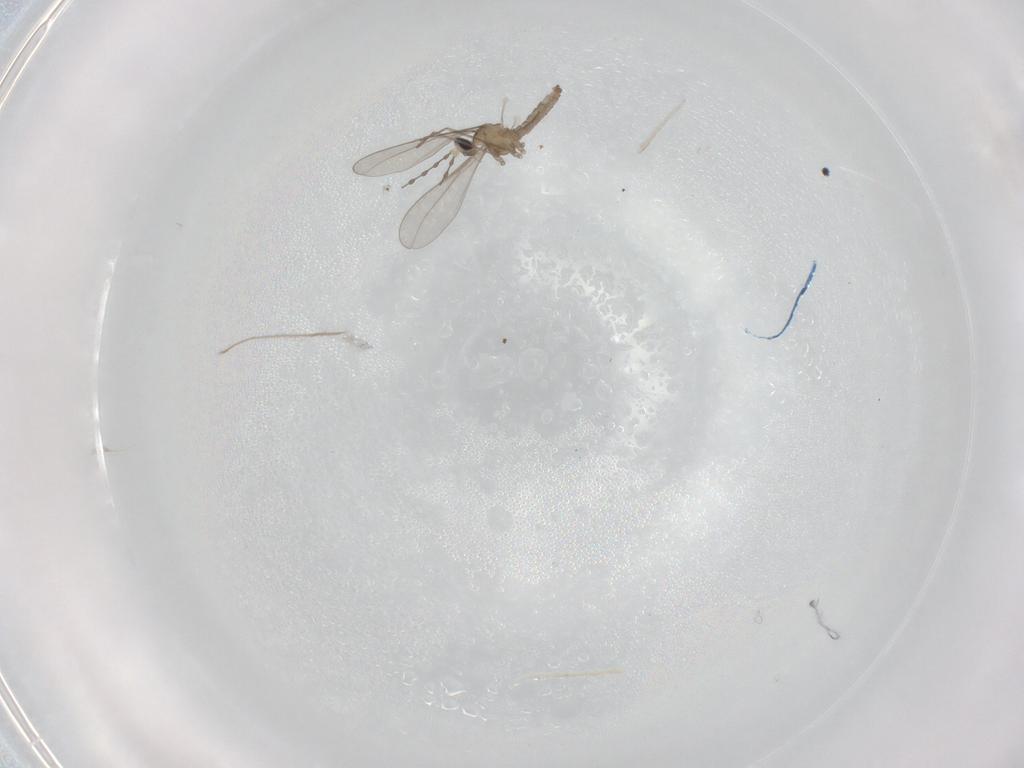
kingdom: Animalia
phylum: Arthropoda
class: Insecta
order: Diptera
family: Sciaridae
